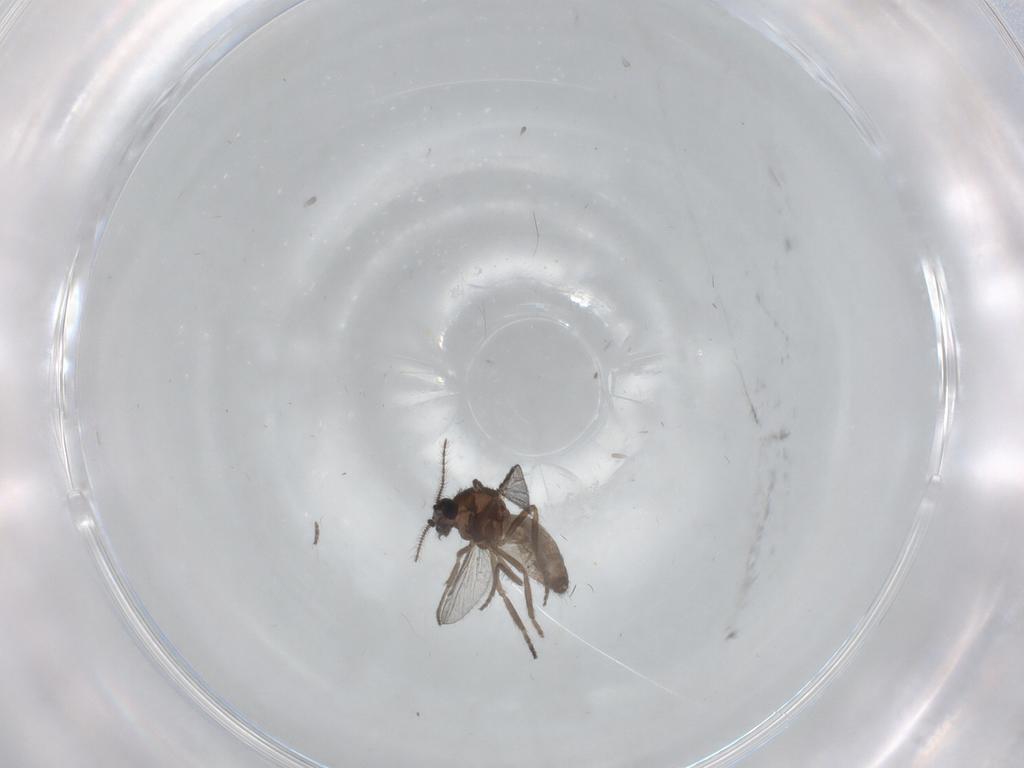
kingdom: Animalia
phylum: Arthropoda
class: Insecta
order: Diptera
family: Ceratopogonidae
